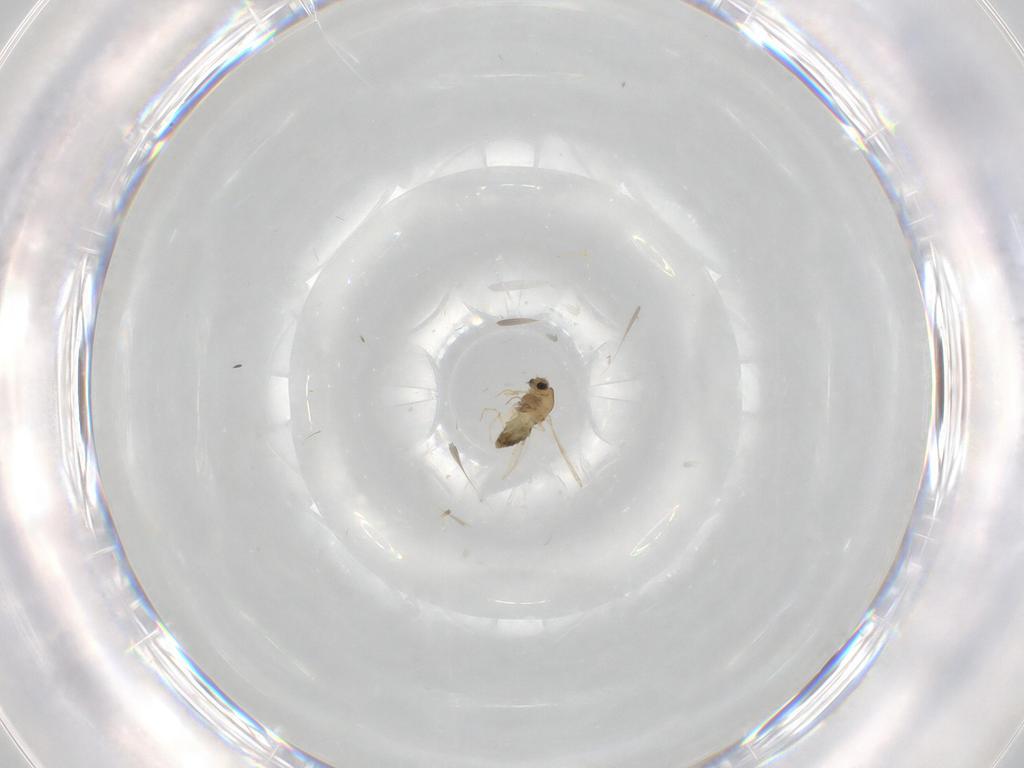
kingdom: Animalia
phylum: Arthropoda
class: Insecta
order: Diptera
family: Chironomidae
